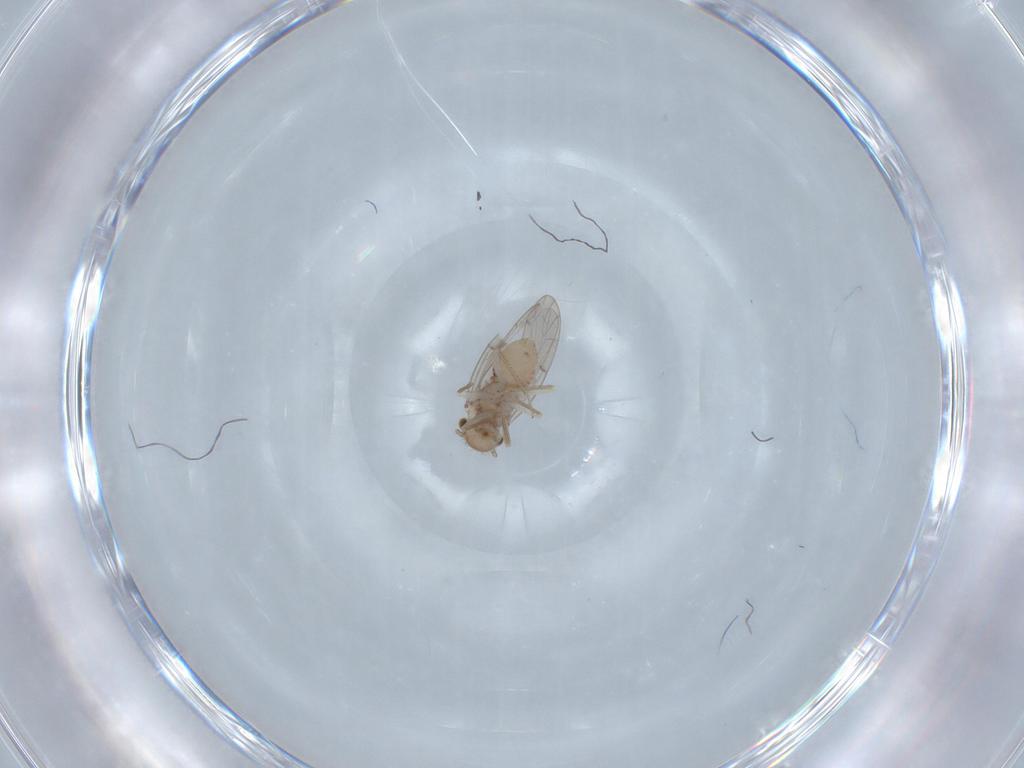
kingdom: Animalia
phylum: Arthropoda
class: Insecta
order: Psocodea
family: Ectopsocidae
